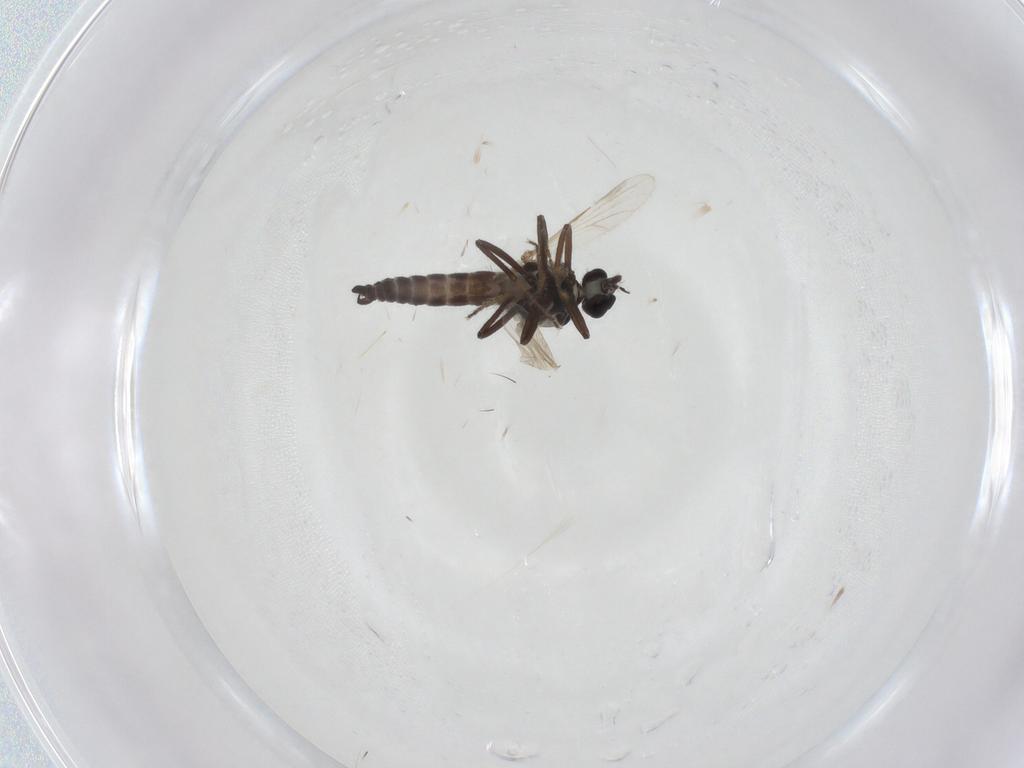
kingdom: Animalia
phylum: Arthropoda
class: Insecta
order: Diptera
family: Ceratopogonidae
